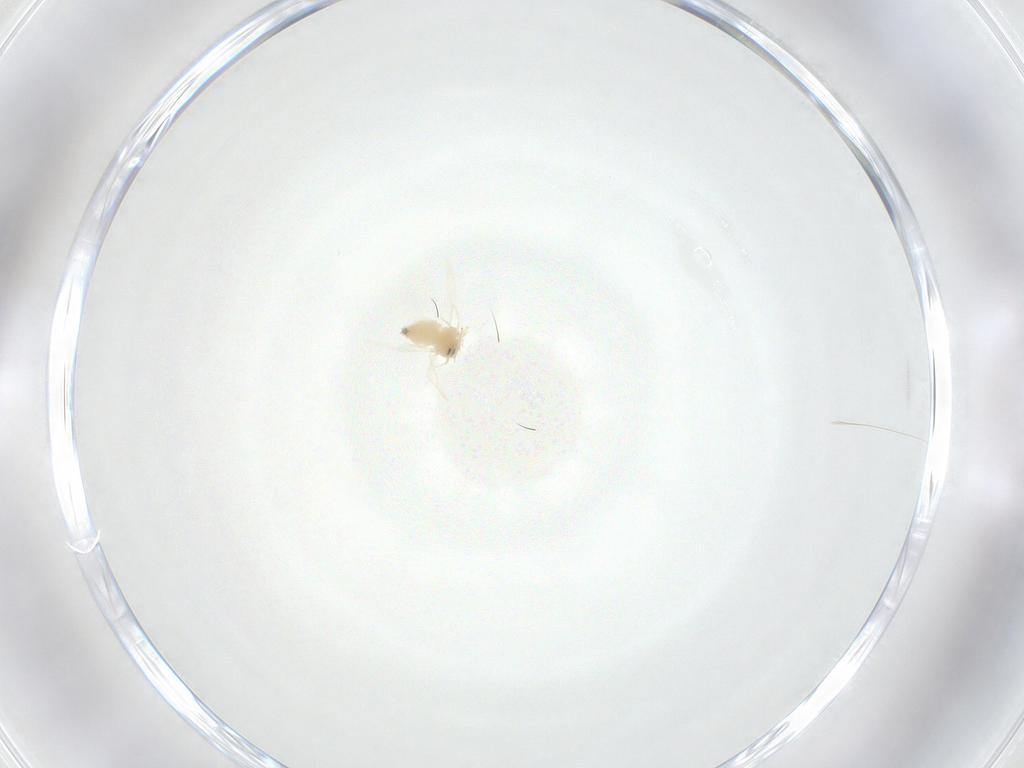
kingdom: Animalia
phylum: Arthropoda
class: Insecta
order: Hemiptera
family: Aleyrodidae
